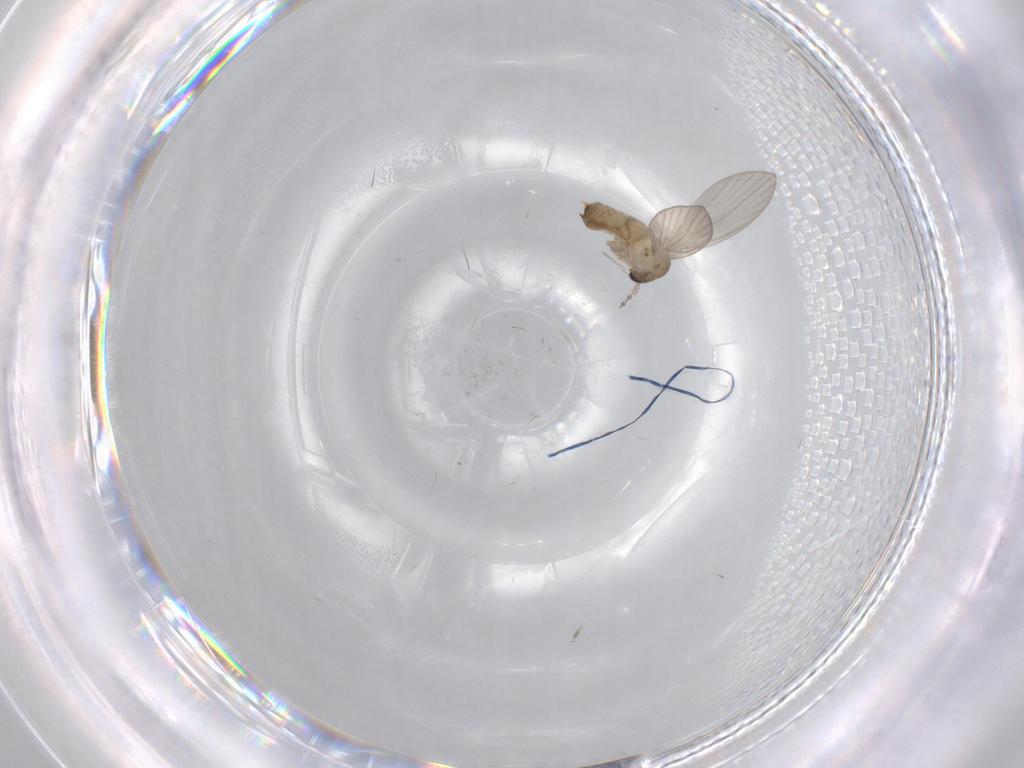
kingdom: Animalia
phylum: Arthropoda
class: Insecta
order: Diptera
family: Chironomidae
